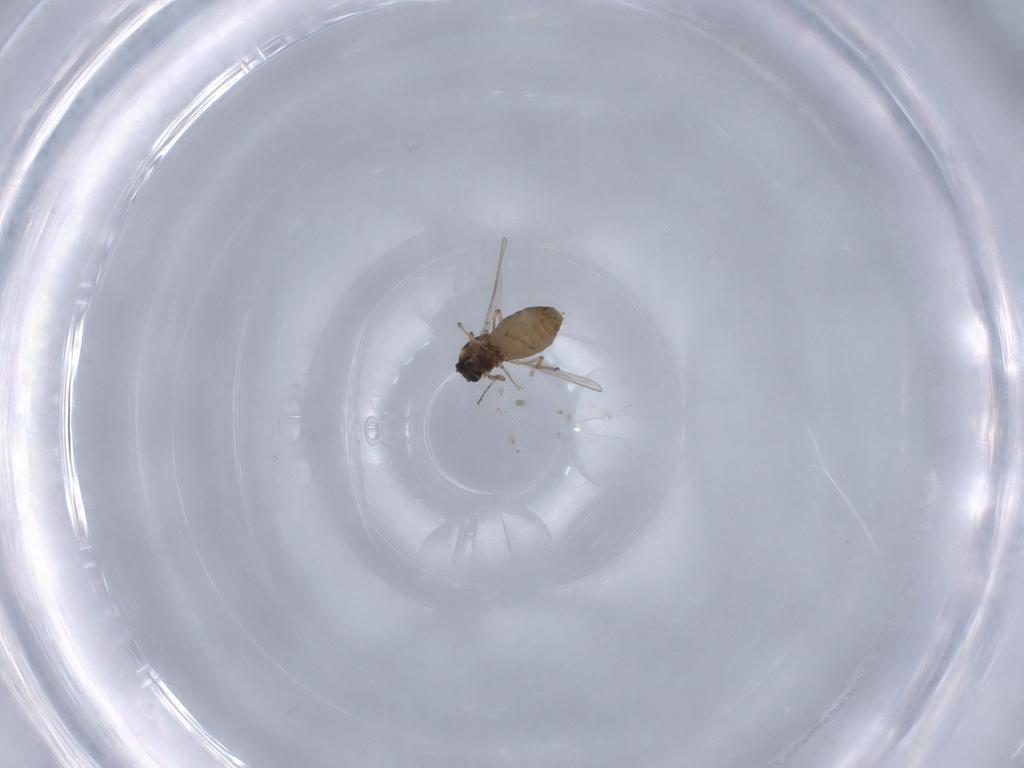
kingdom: Animalia
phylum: Arthropoda
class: Insecta
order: Diptera
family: Ceratopogonidae
